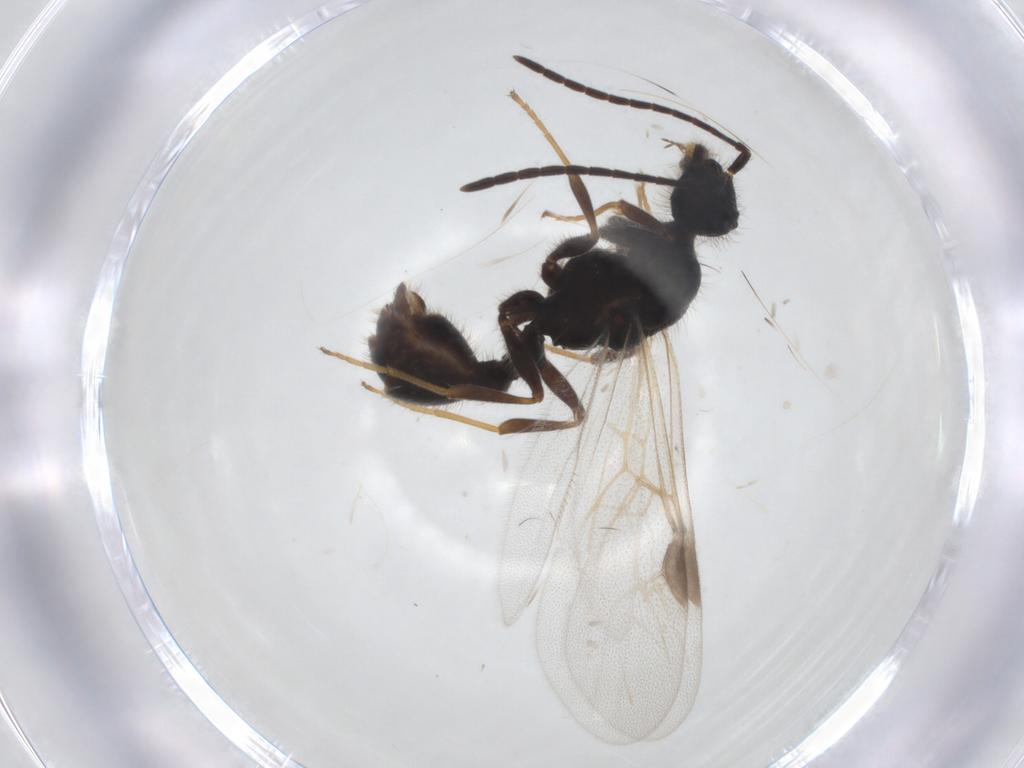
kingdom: Animalia
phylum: Arthropoda
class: Insecta
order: Hymenoptera
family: Formicidae
